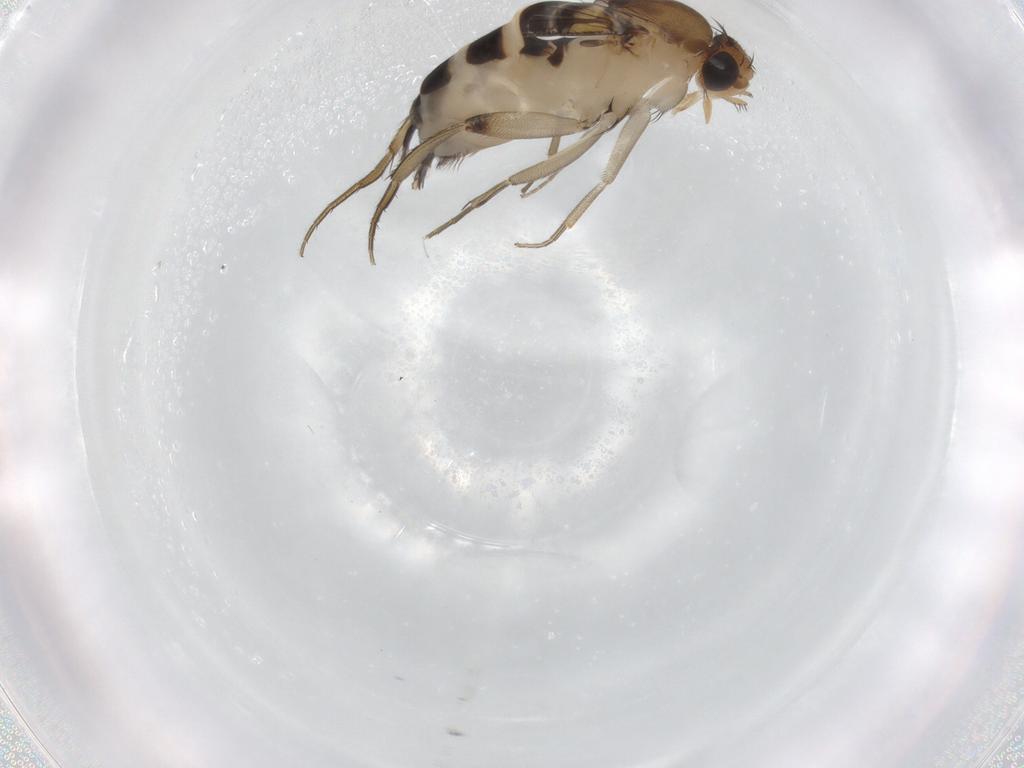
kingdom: Animalia
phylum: Arthropoda
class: Insecta
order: Diptera
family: Phoridae
